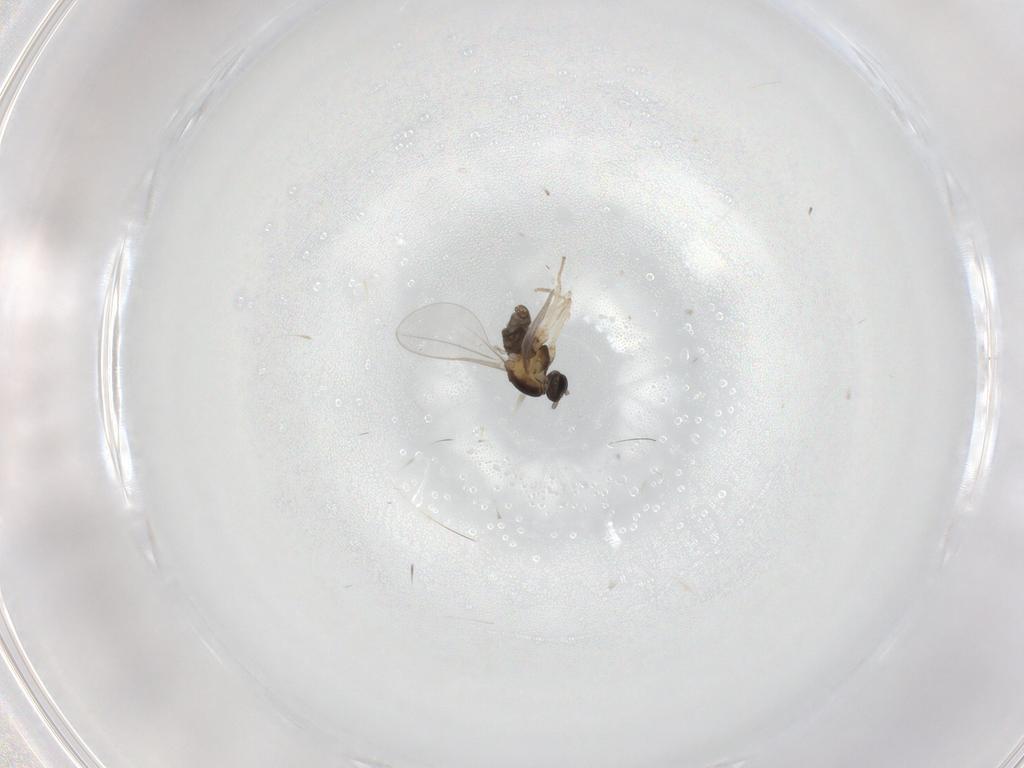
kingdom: Animalia
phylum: Arthropoda
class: Insecta
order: Diptera
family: Cecidomyiidae
